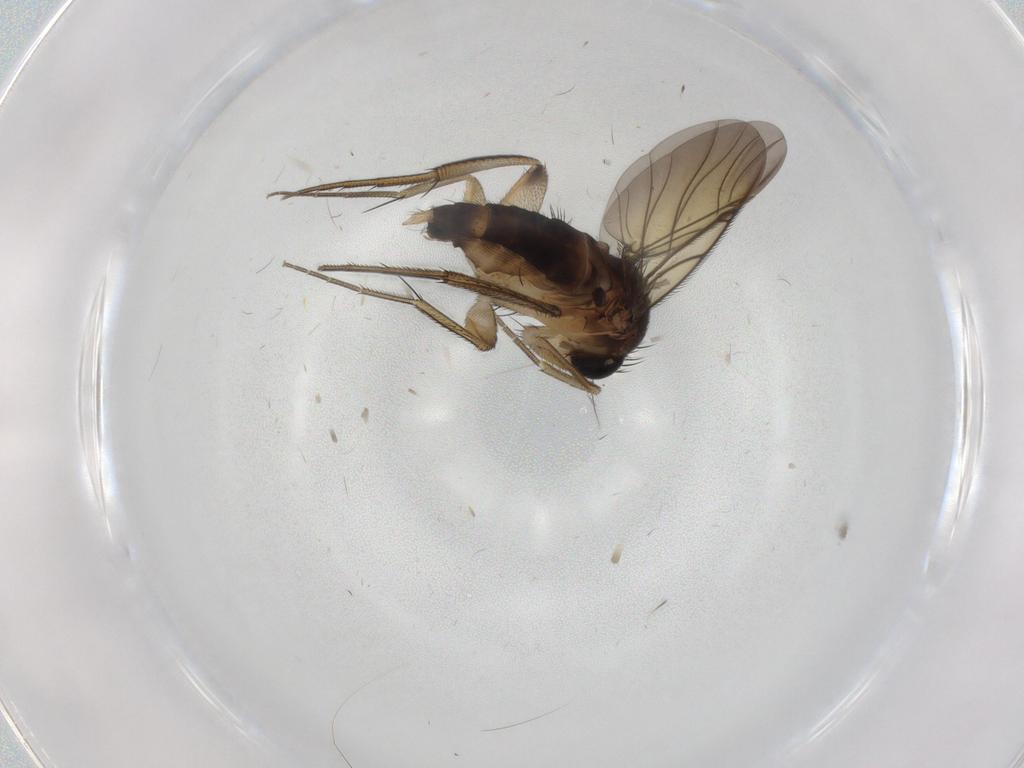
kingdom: Animalia
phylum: Arthropoda
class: Insecta
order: Diptera
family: Phoridae
